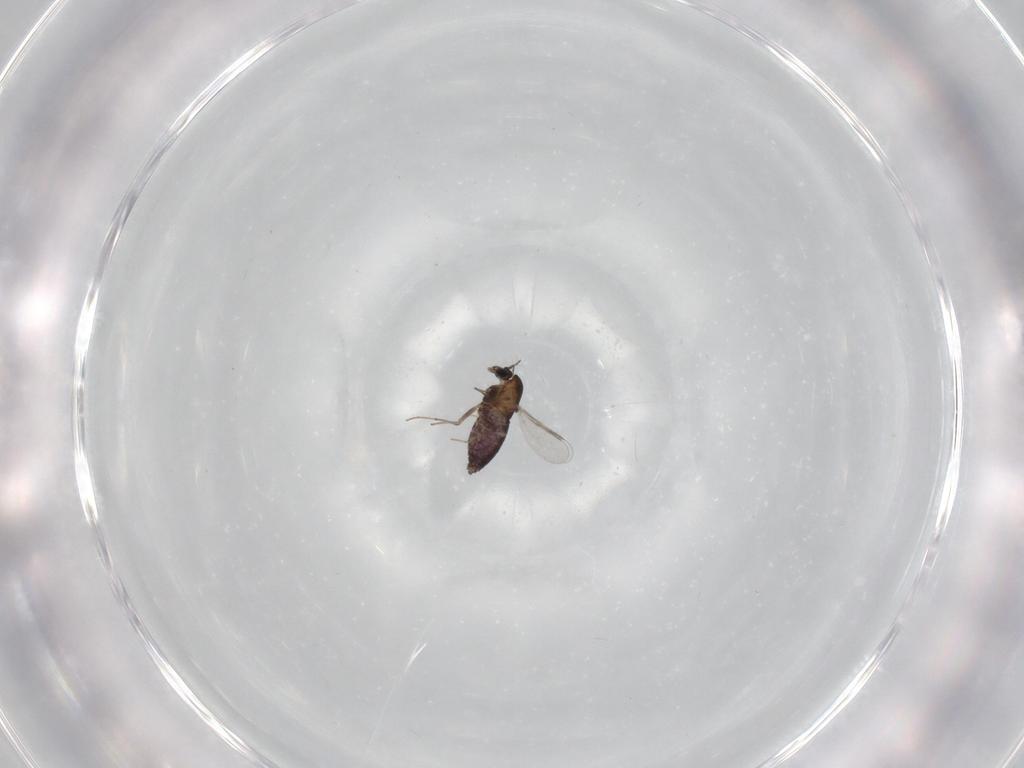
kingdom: Animalia
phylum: Arthropoda
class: Insecta
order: Diptera
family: Chironomidae
